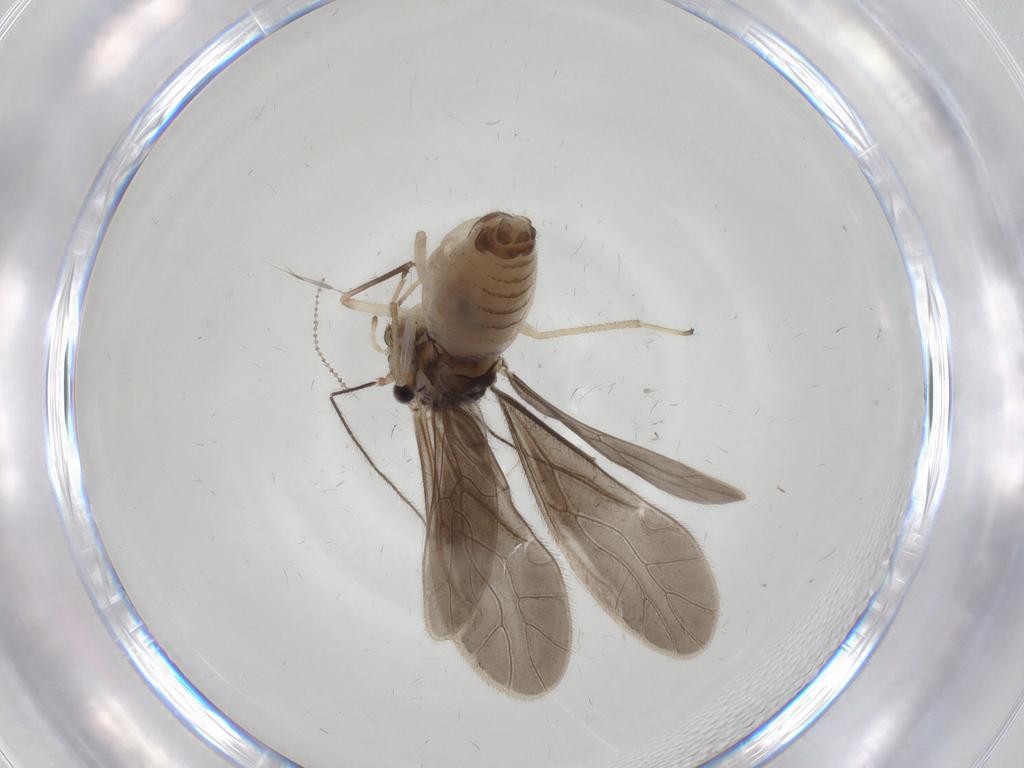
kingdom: Animalia
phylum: Arthropoda
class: Insecta
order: Psocodea
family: Caeciliusidae
